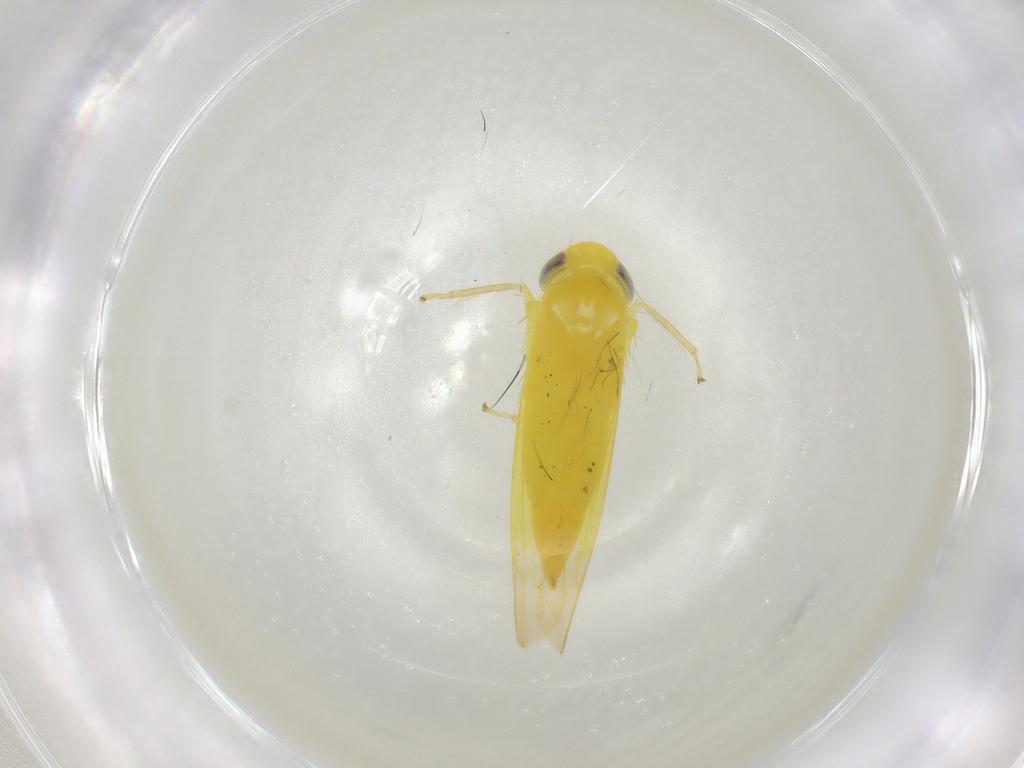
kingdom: Animalia
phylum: Arthropoda
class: Insecta
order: Hemiptera
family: Cicadellidae
